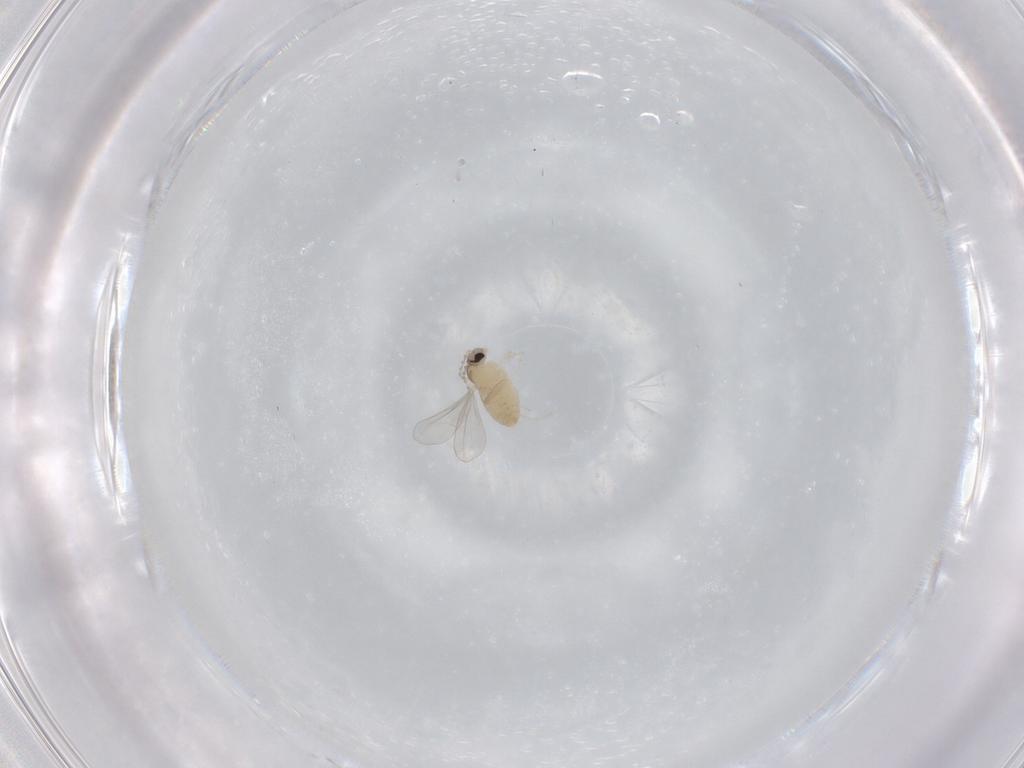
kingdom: Animalia
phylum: Arthropoda
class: Insecta
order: Diptera
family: Cecidomyiidae
